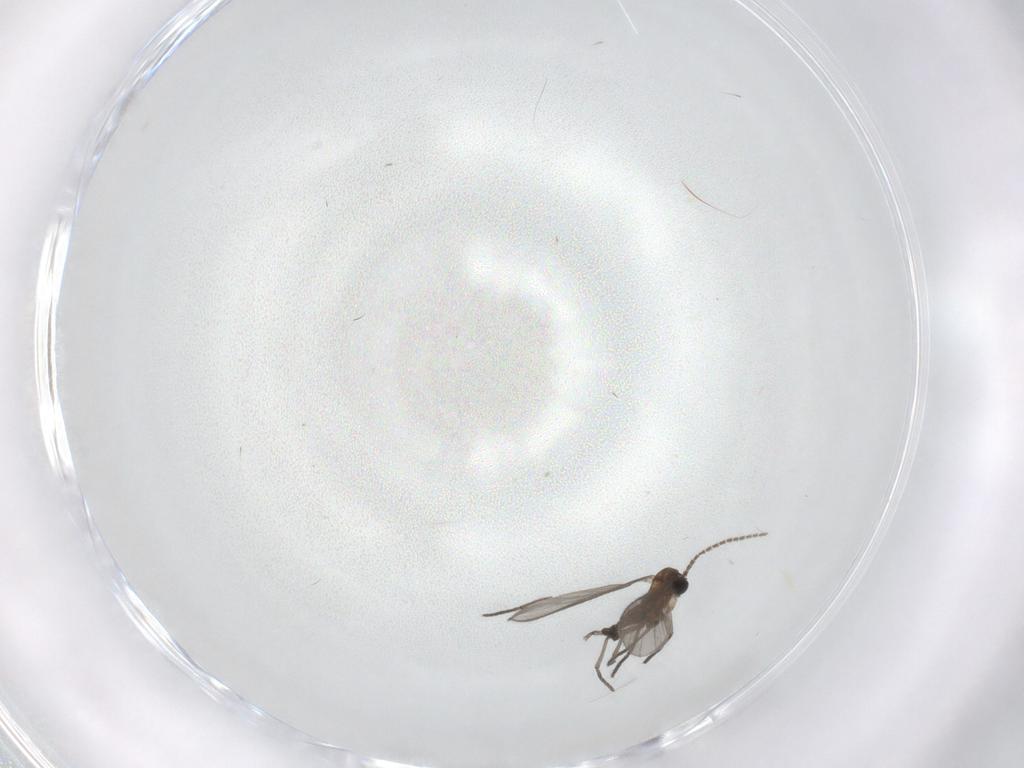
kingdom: Animalia
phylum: Arthropoda
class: Insecta
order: Diptera
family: Sciaridae
